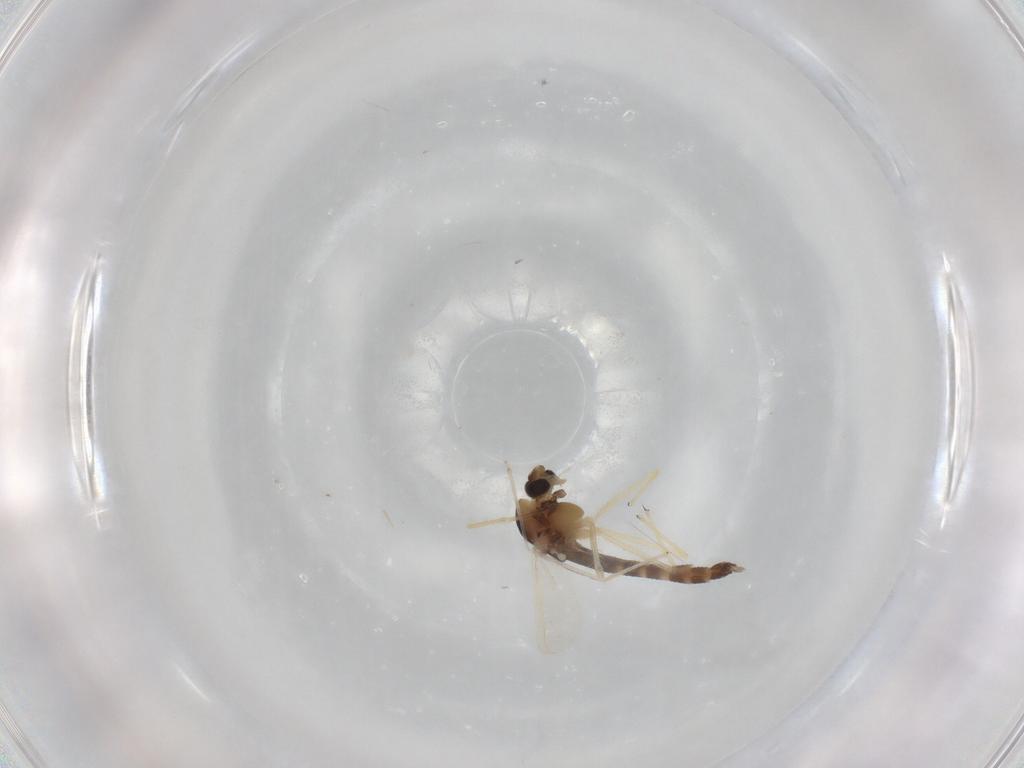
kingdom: Animalia
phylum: Arthropoda
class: Insecta
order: Diptera
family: Chironomidae
